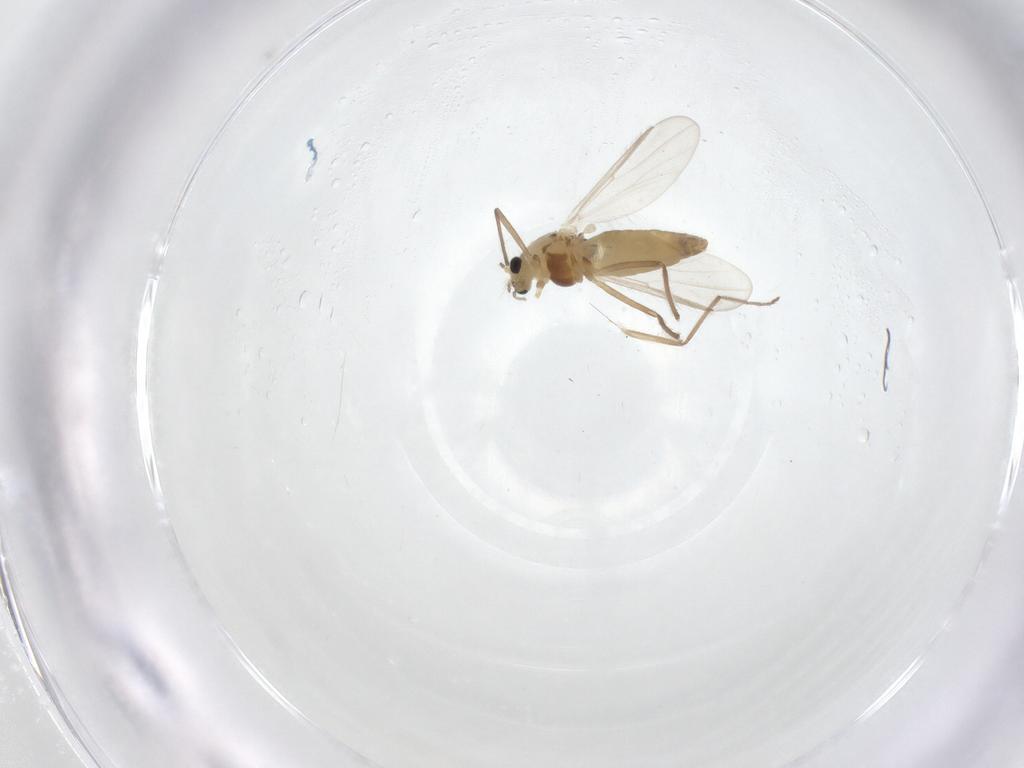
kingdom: Animalia
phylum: Arthropoda
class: Insecta
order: Diptera
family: Chironomidae
